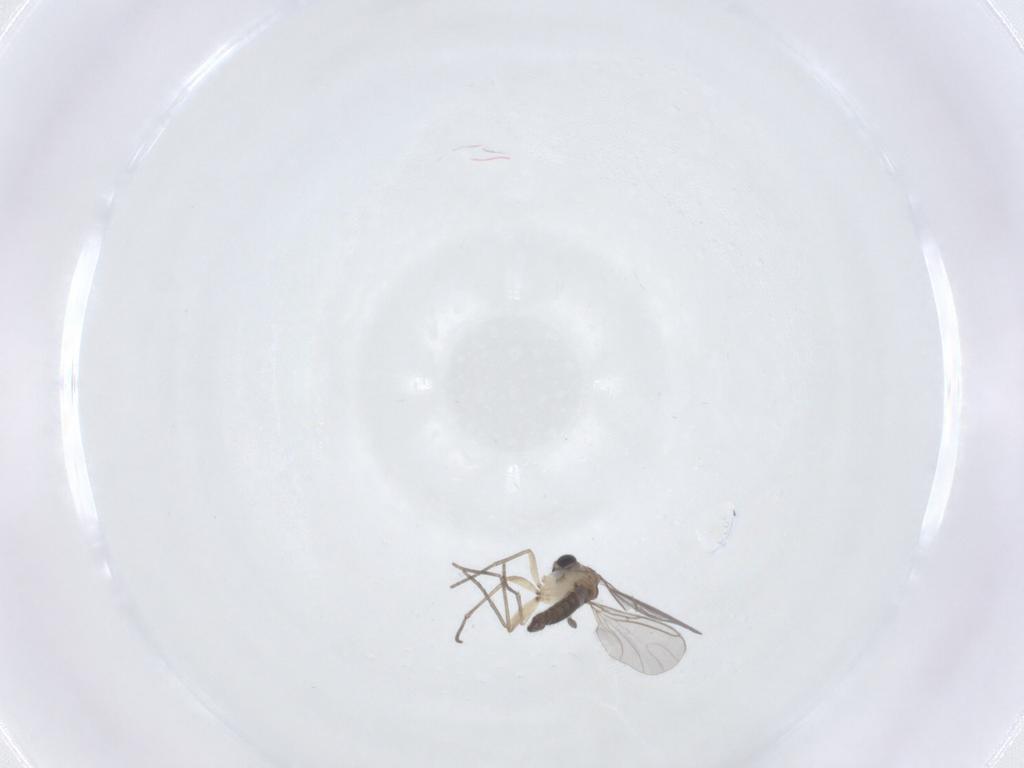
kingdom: Animalia
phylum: Arthropoda
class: Insecta
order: Diptera
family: Sciaridae
